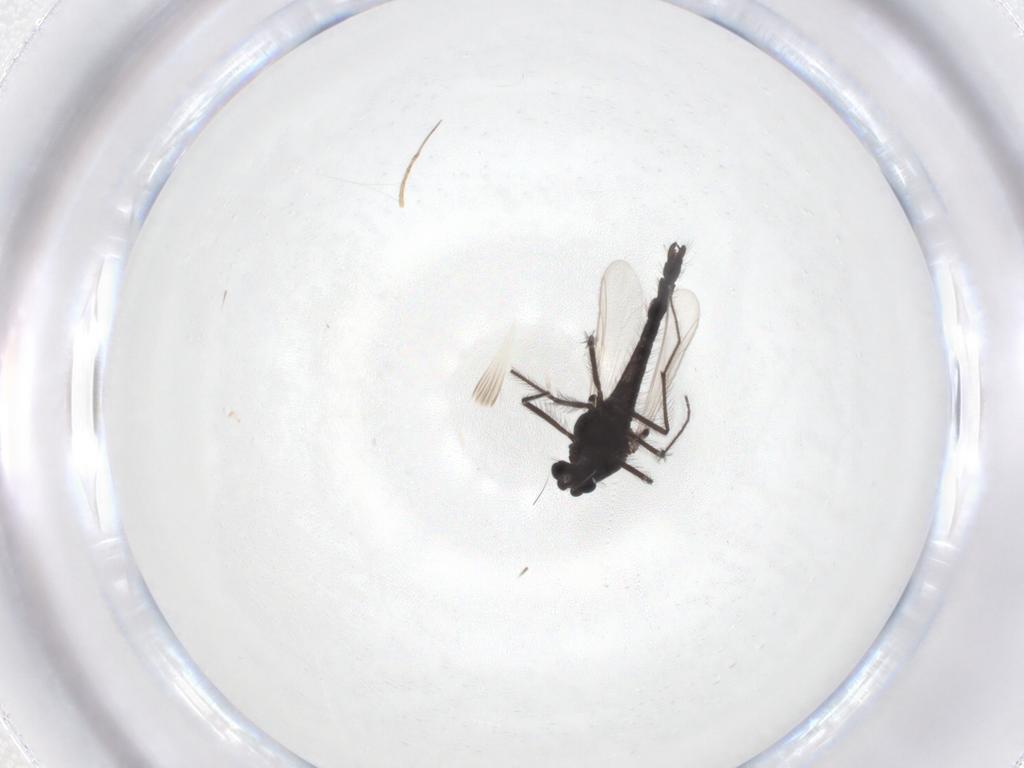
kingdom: Animalia
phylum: Arthropoda
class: Insecta
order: Diptera
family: Chironomidae
